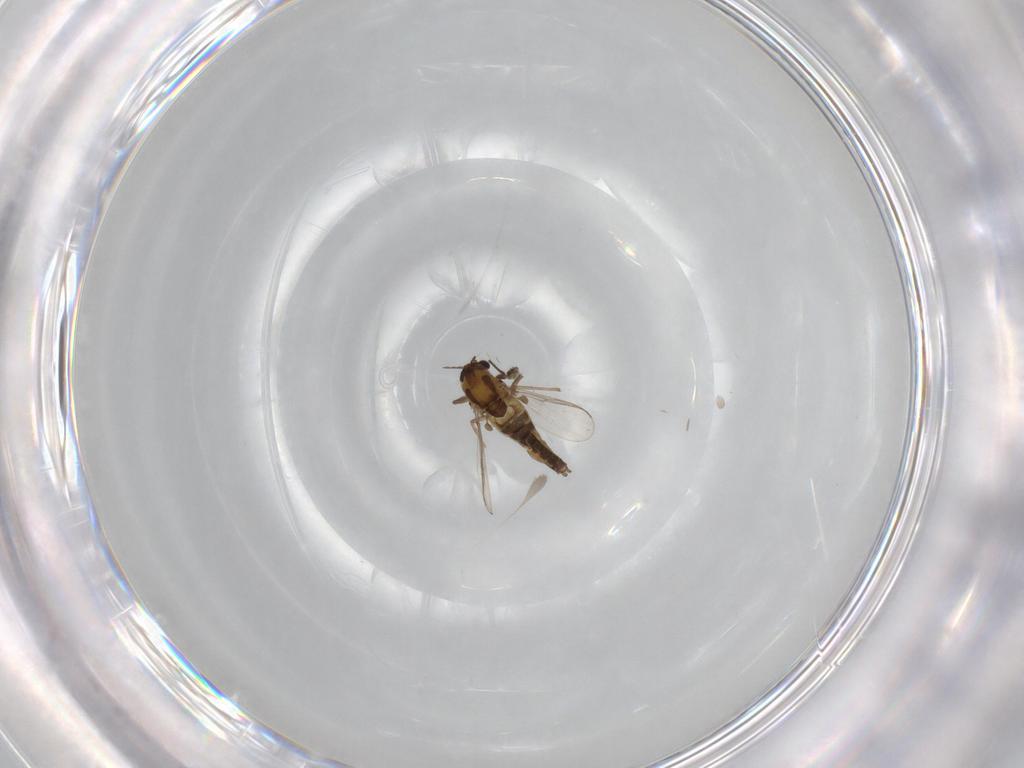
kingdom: Animalia
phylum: Arthropoda
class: Insecta
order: Diptera
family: Chironomidae
